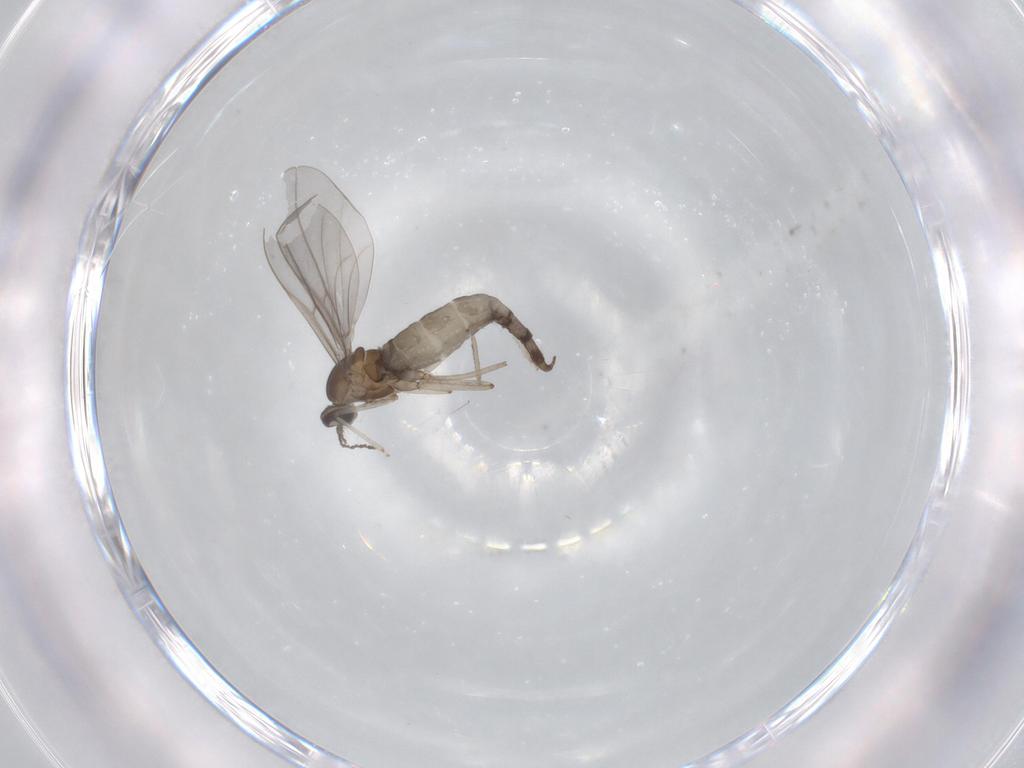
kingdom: Animalia
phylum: Arthropoda
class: Insecta
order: Diptera
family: Cecidomyiidae
